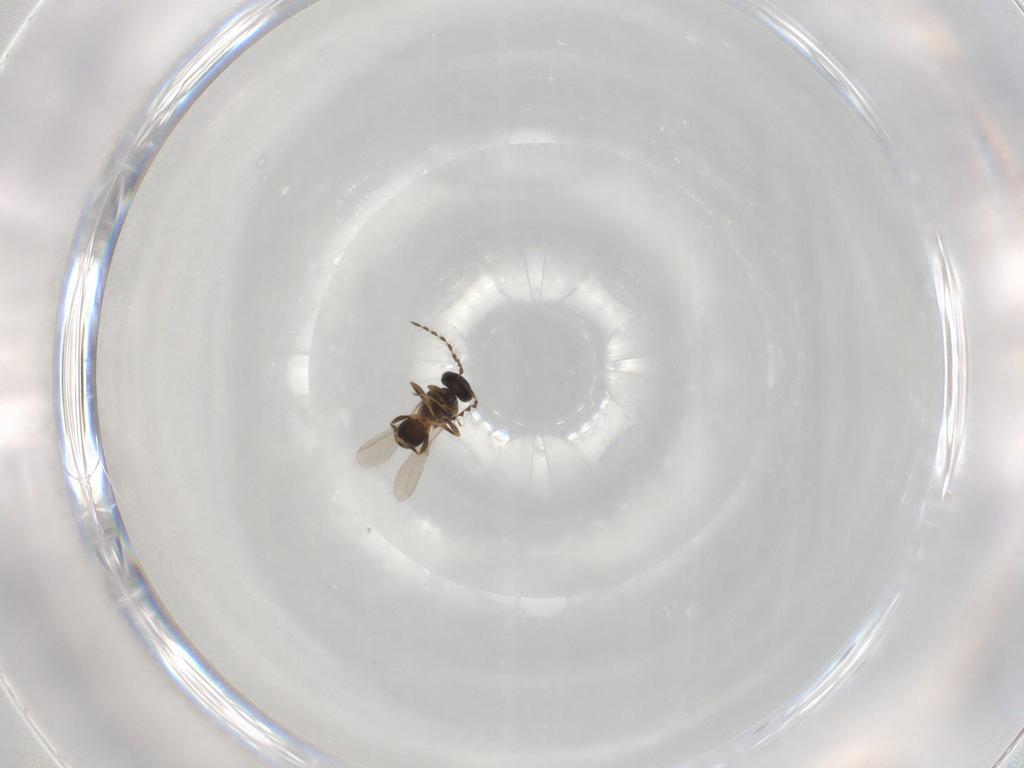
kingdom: Animalia
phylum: Arthropoda
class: Insecta
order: Hymenoptera
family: Platygastridae
